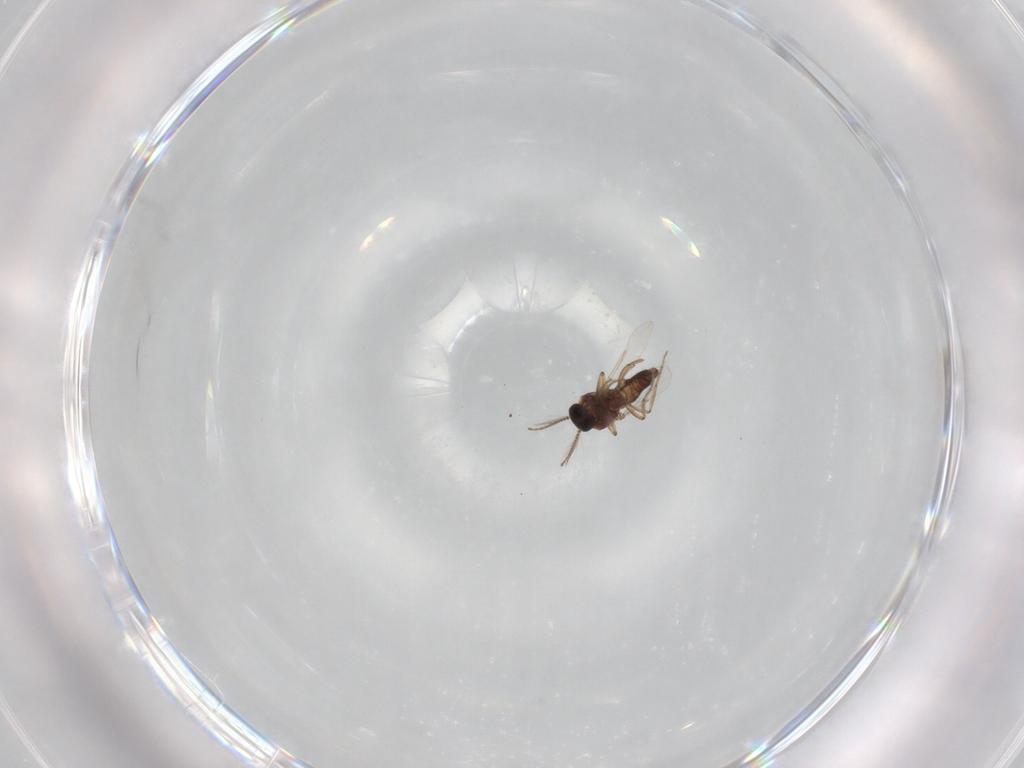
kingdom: Animalia
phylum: Arthropoda
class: Insecta
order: Diptera
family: Ceratopogonidae
